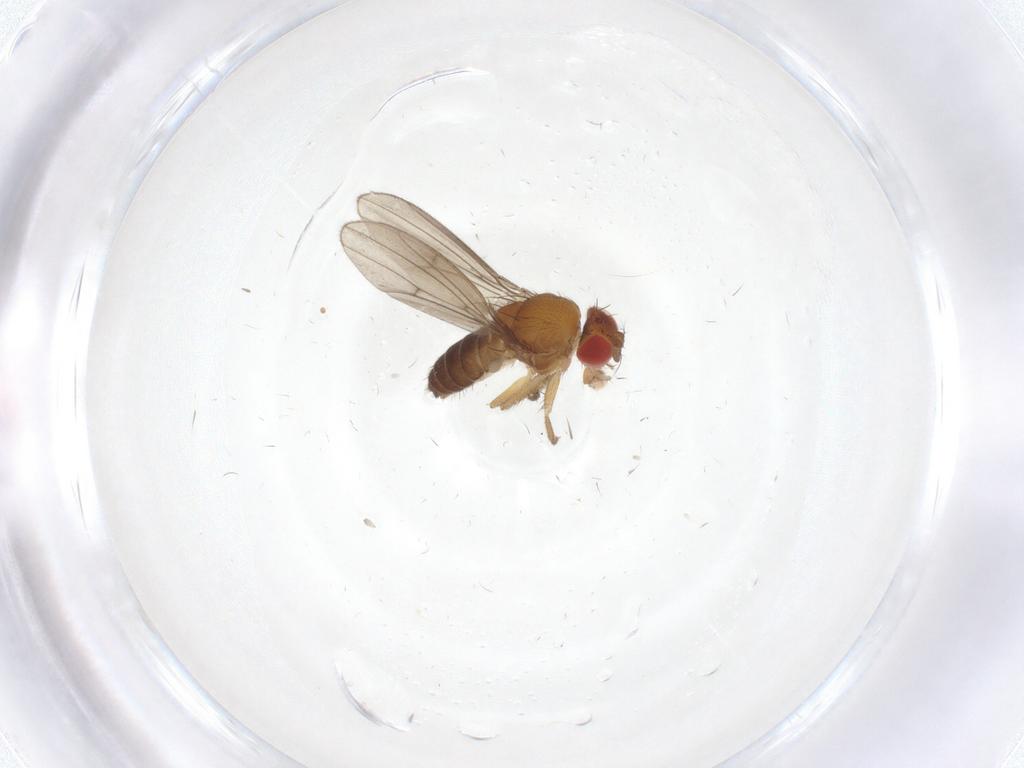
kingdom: Animalia
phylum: Arthropoda
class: Insecta
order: Diptera
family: Drosophilidae
